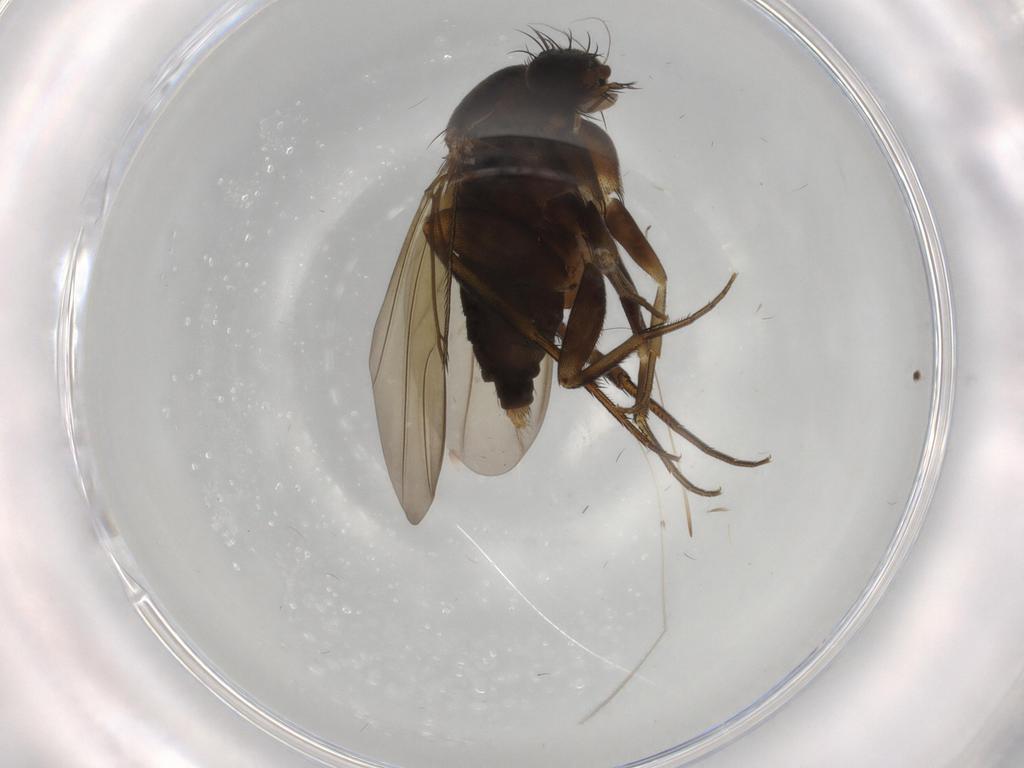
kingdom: Animalia
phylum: Arthropoda
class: Insecta
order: Diptera
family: Phoridae
